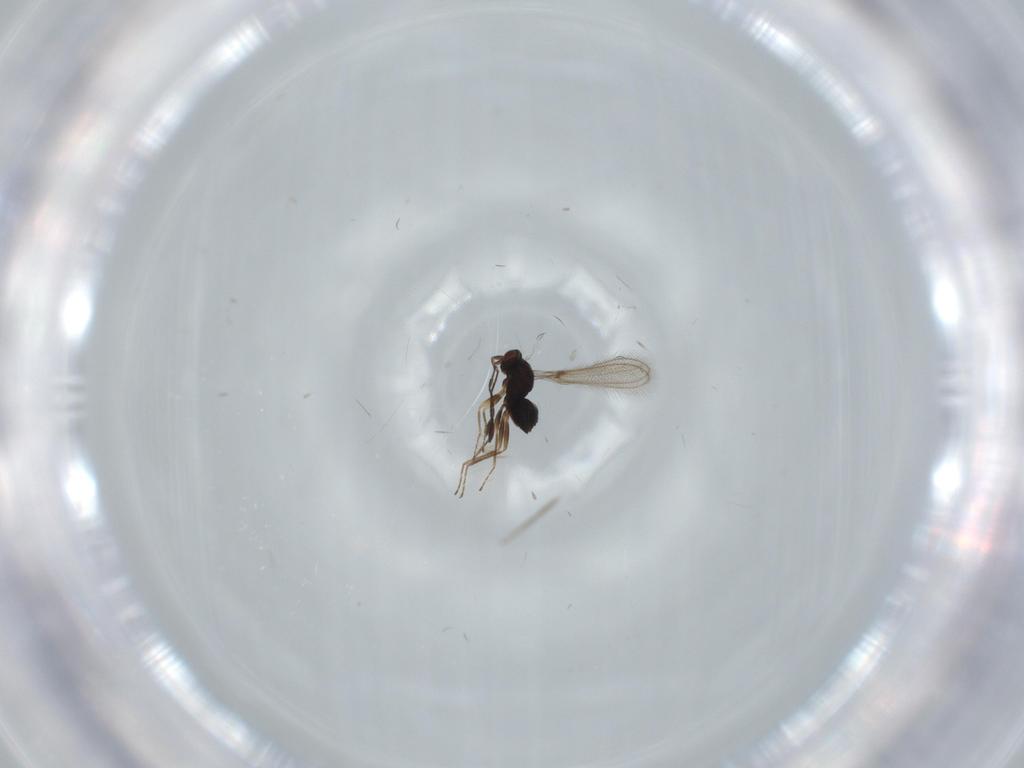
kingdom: Animalia
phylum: Arthropoda
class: Insecta
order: Hymenoptera
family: Eulophidae
